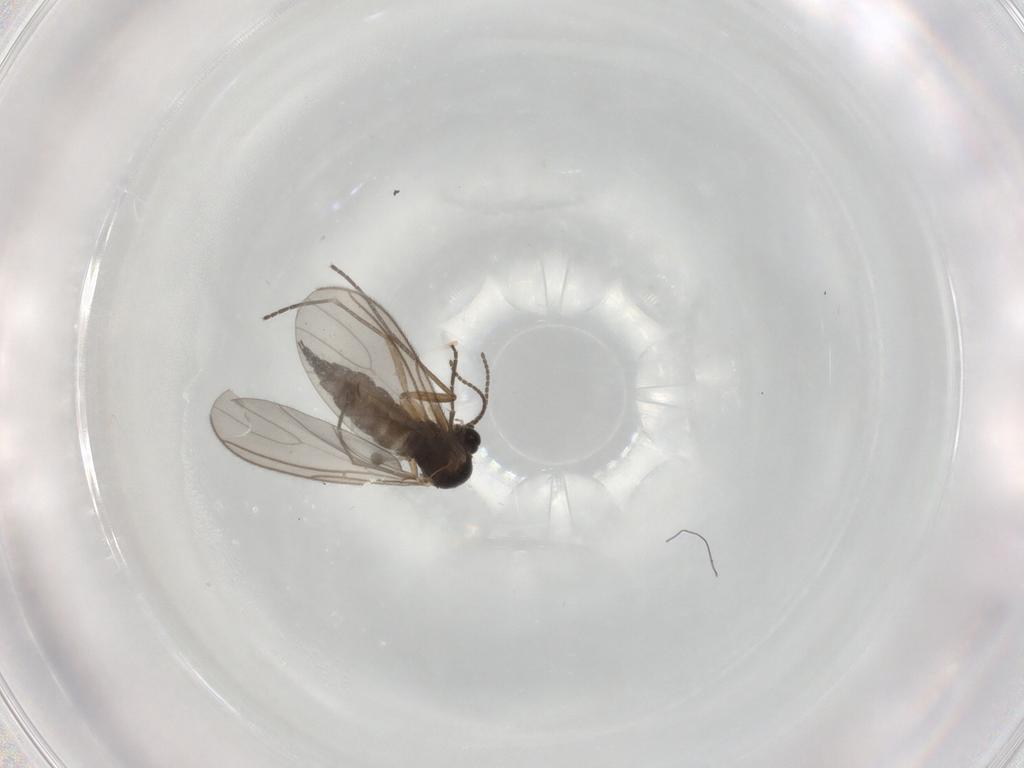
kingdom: Animalia
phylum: Arthropoda
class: Insecta
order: Diptera
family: Sciaridae
